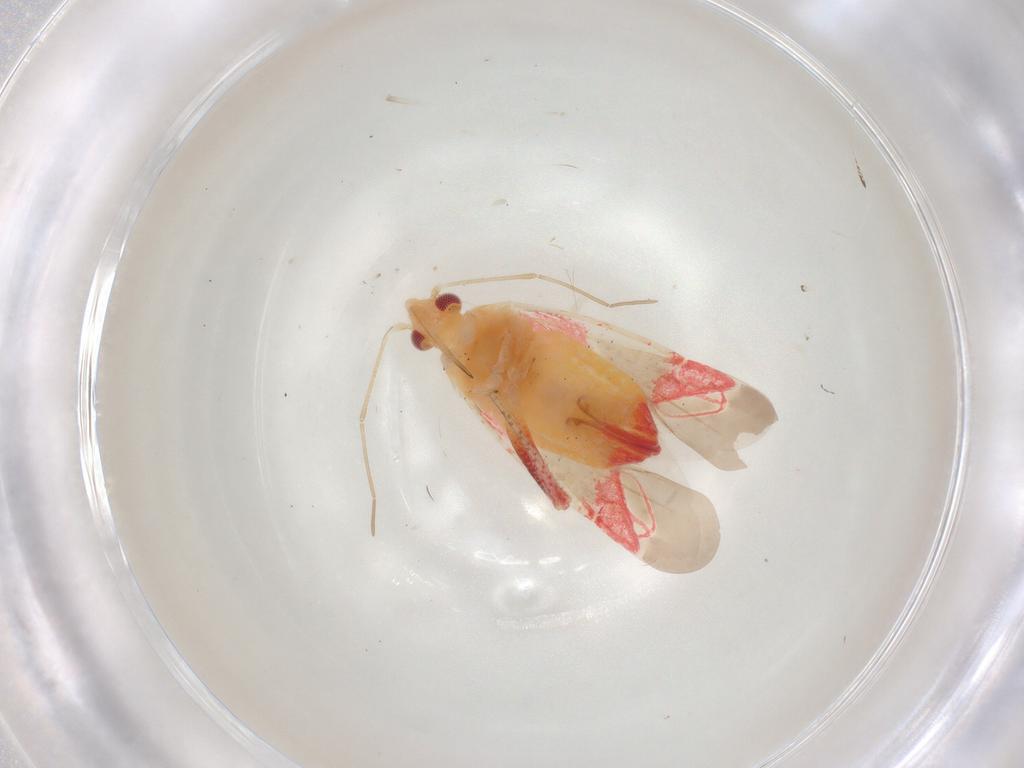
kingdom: Animalia
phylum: Arthropoda
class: Insecta
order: Hemiptera
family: Miridae
